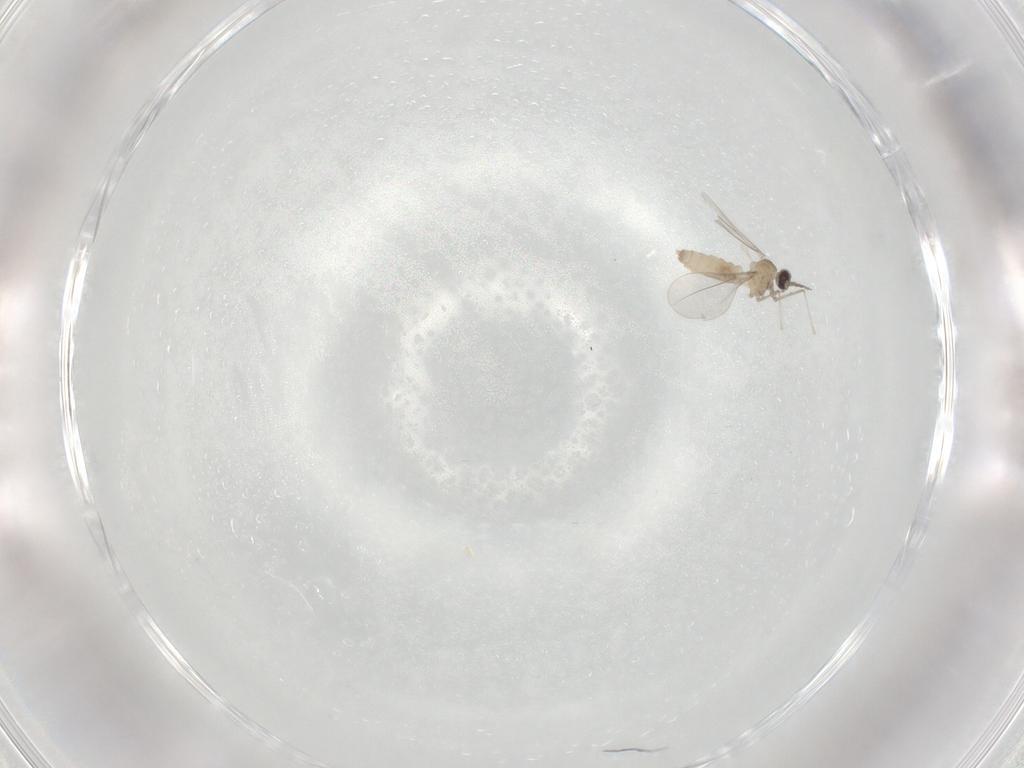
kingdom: Animalia
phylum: Arthropoda
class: Insecta
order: Diptera
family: Cecidomyiidae
